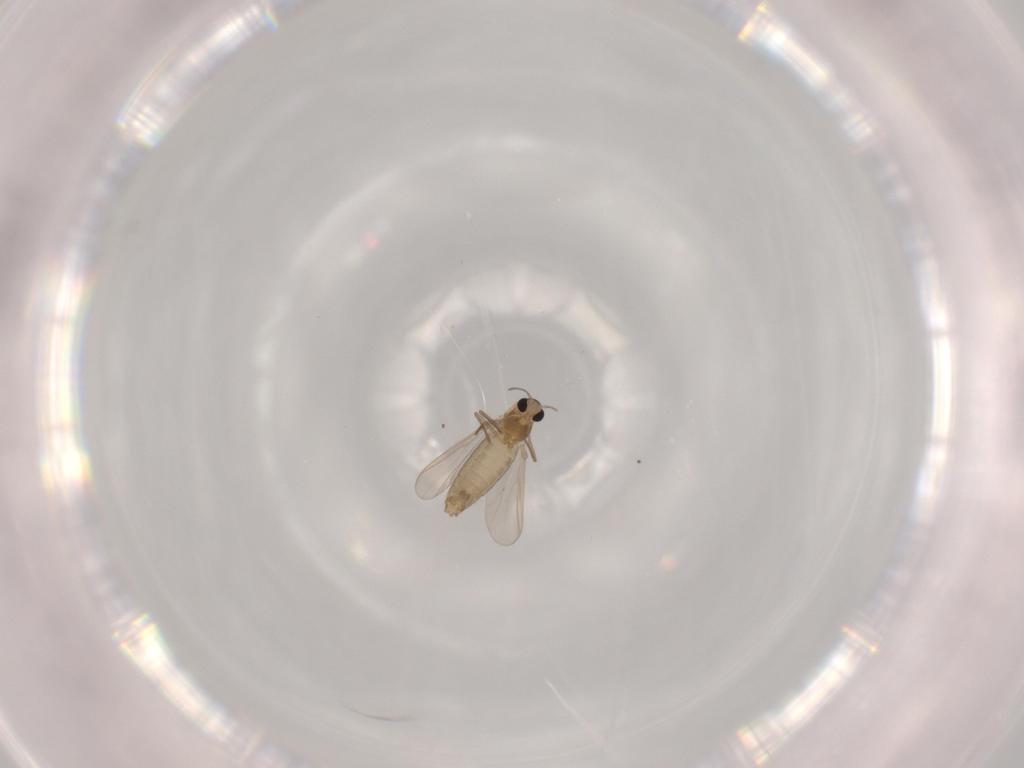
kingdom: Animalia
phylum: Arthropoda
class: Insecta
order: Diptera
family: Chironomidae
